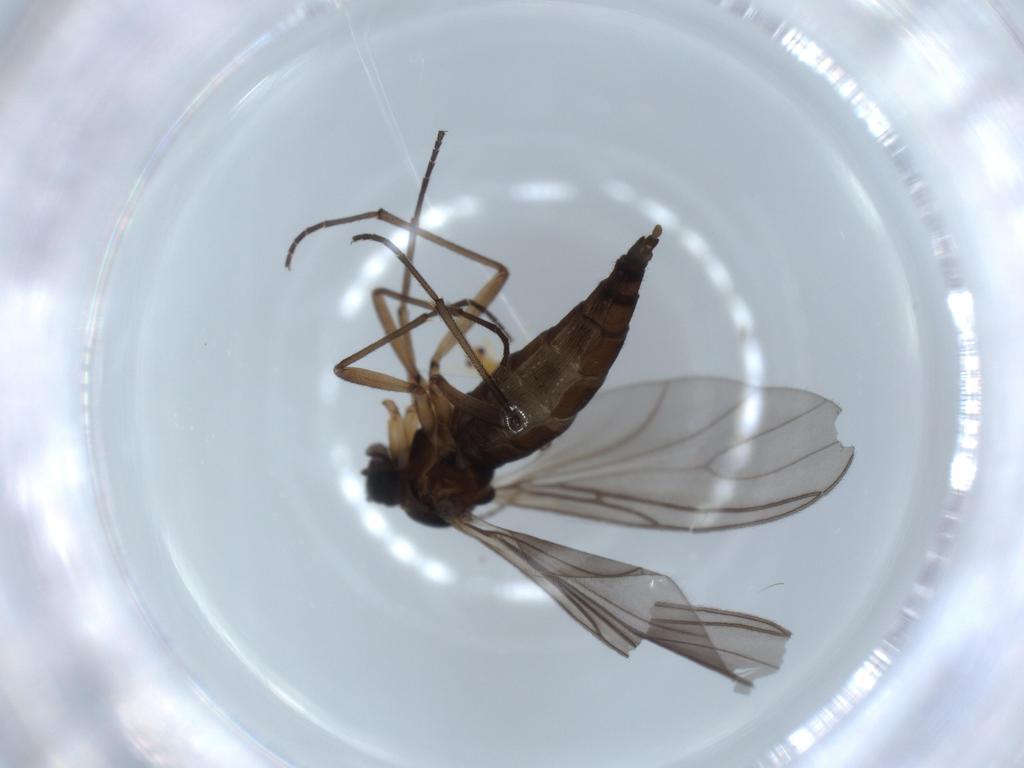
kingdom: Animalia
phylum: Arthropoda
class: Insecta
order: Diptera
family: Sciaridae
